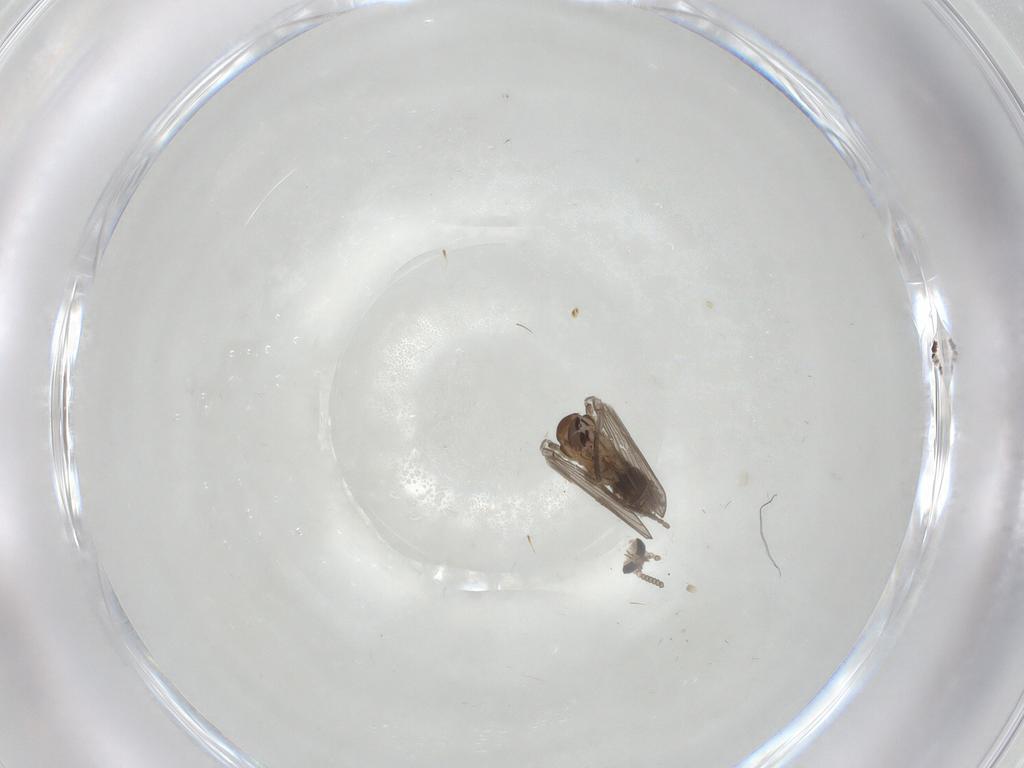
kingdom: Animalia
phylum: Arthropoda
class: Insecta
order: Diptera
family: Psychodidae
